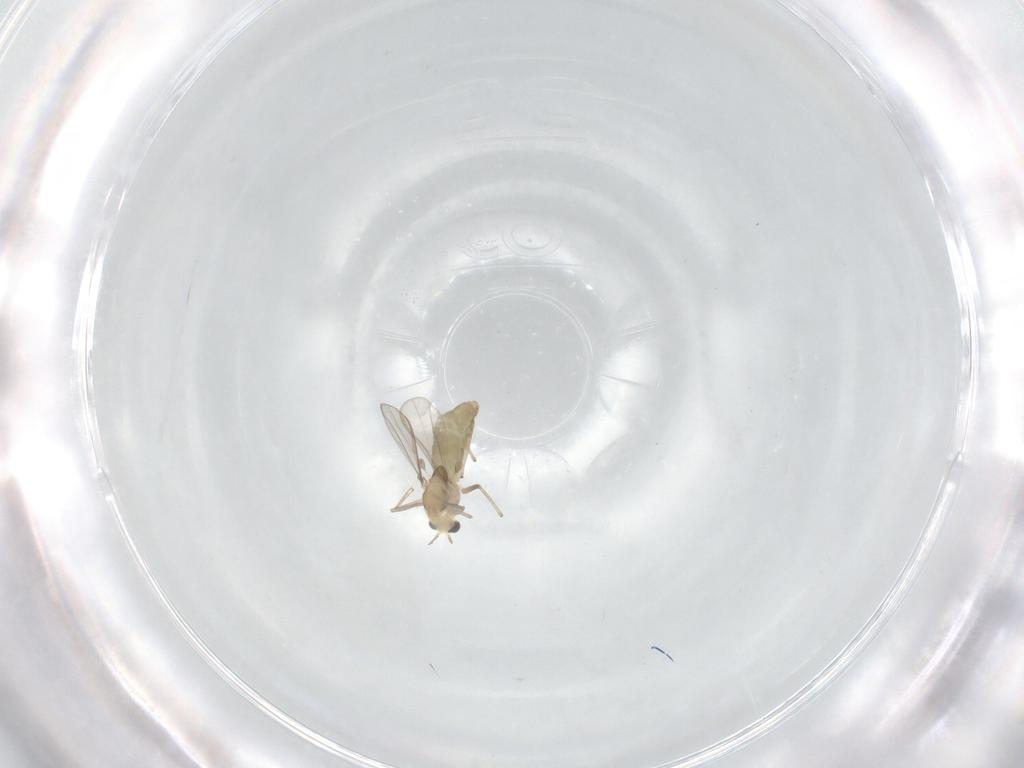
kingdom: Animalia
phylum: Arthropoda
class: Insecta
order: Diptera
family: Chironomidae
